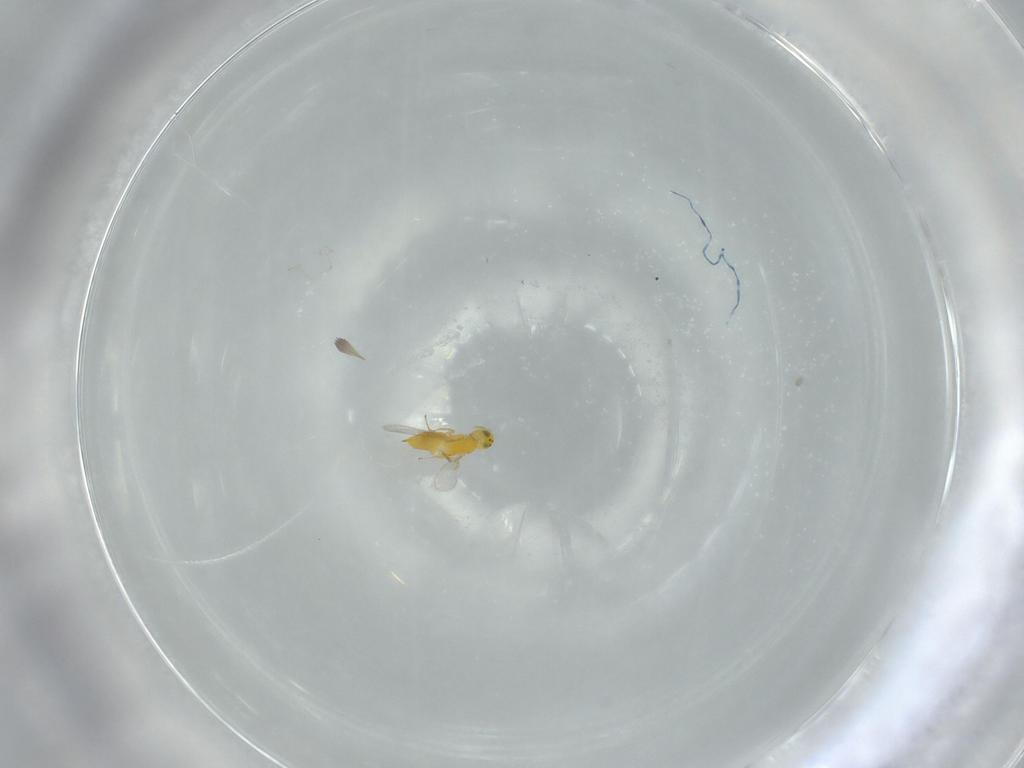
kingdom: Animalia
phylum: Arthropoda
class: Insecta
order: Hymenoptera
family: Aphelinidae
